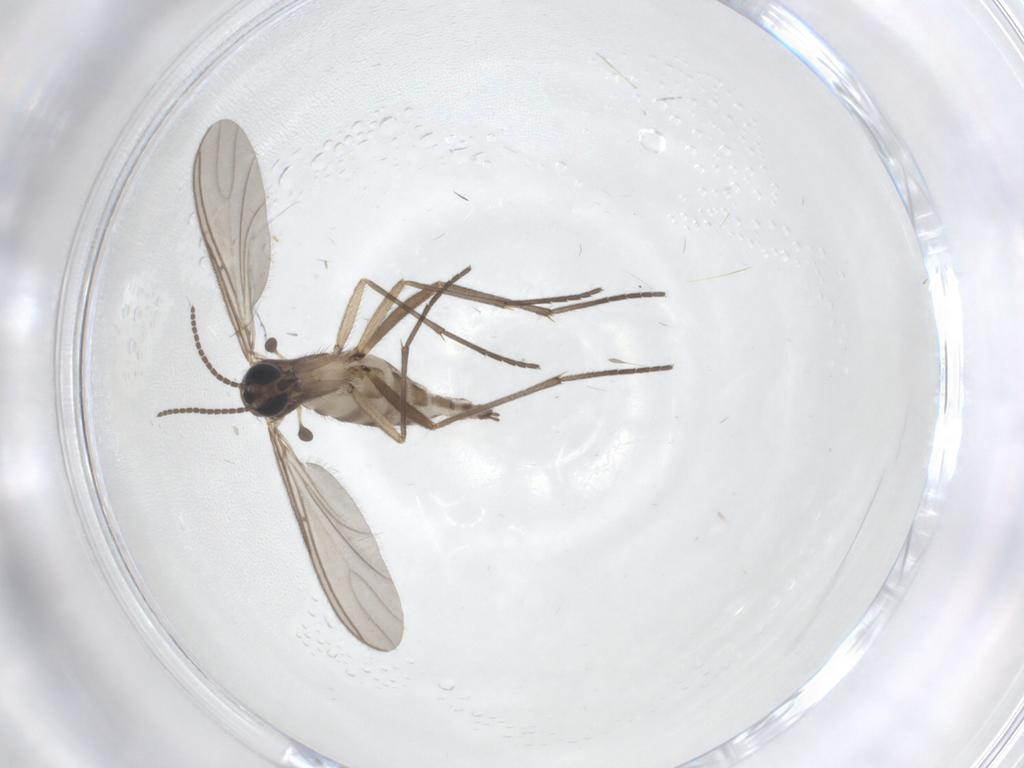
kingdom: Animalia
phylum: Arthropoda
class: Insecta
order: Diptera
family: Sciaridae
